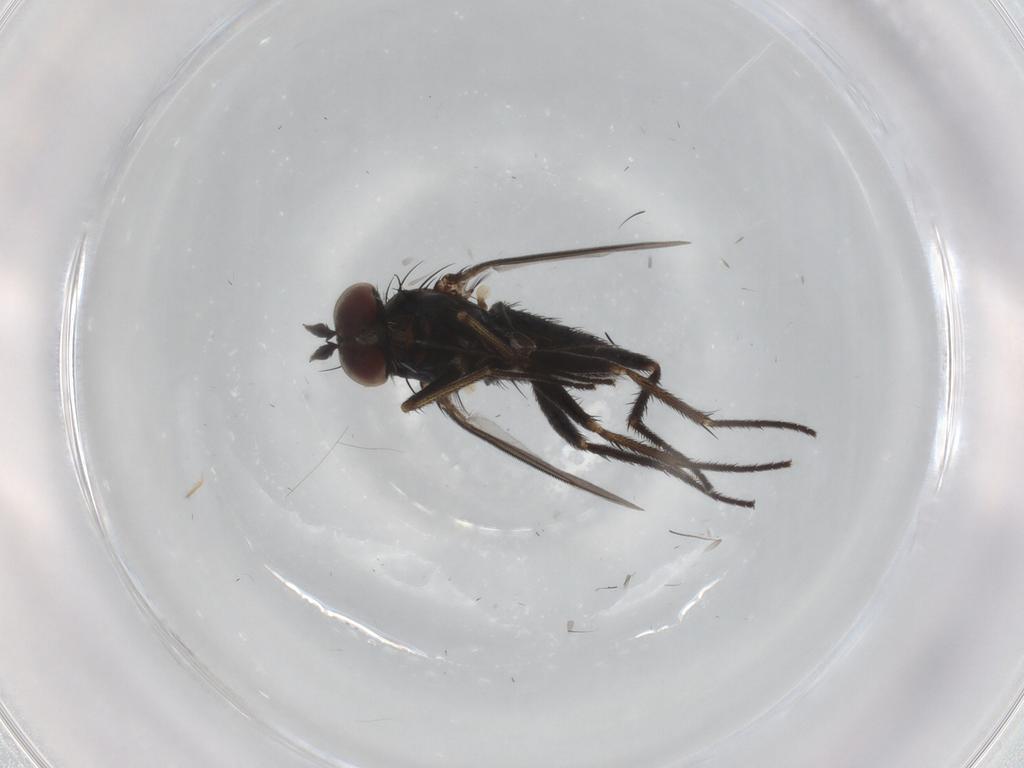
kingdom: Animalia
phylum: Arthropoda
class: Insecta
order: Diptera
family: Dolichopodidae
